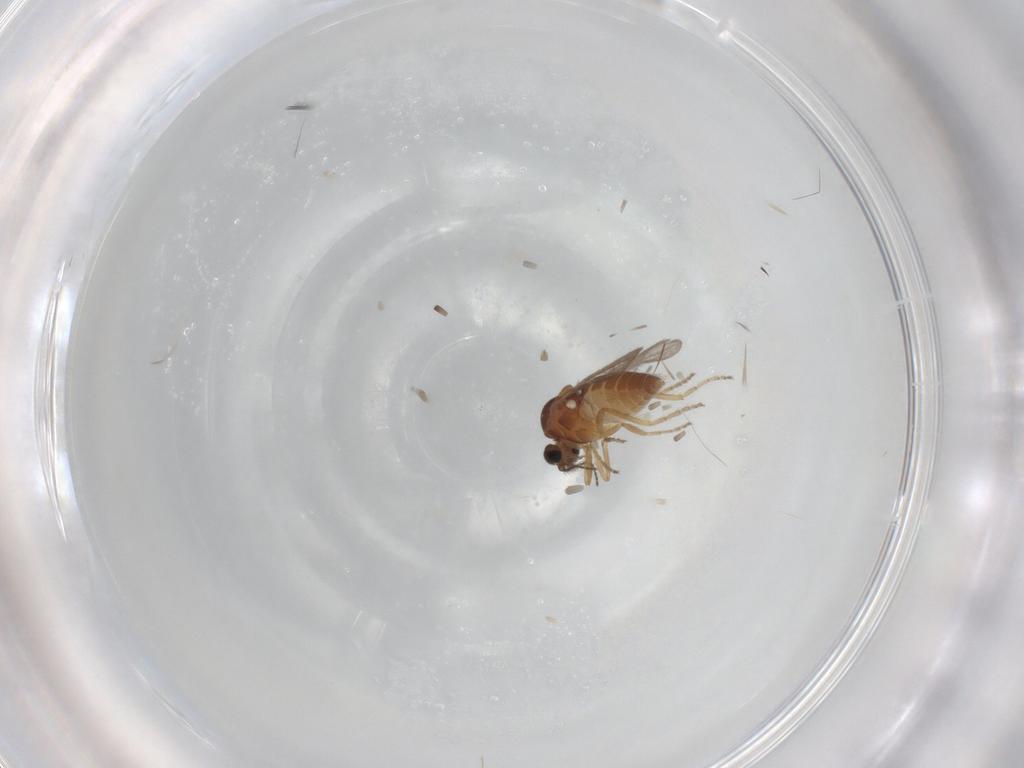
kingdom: Animalia
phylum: Arthropoda
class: Insecta
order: Diptera
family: Ceratopogonidae
